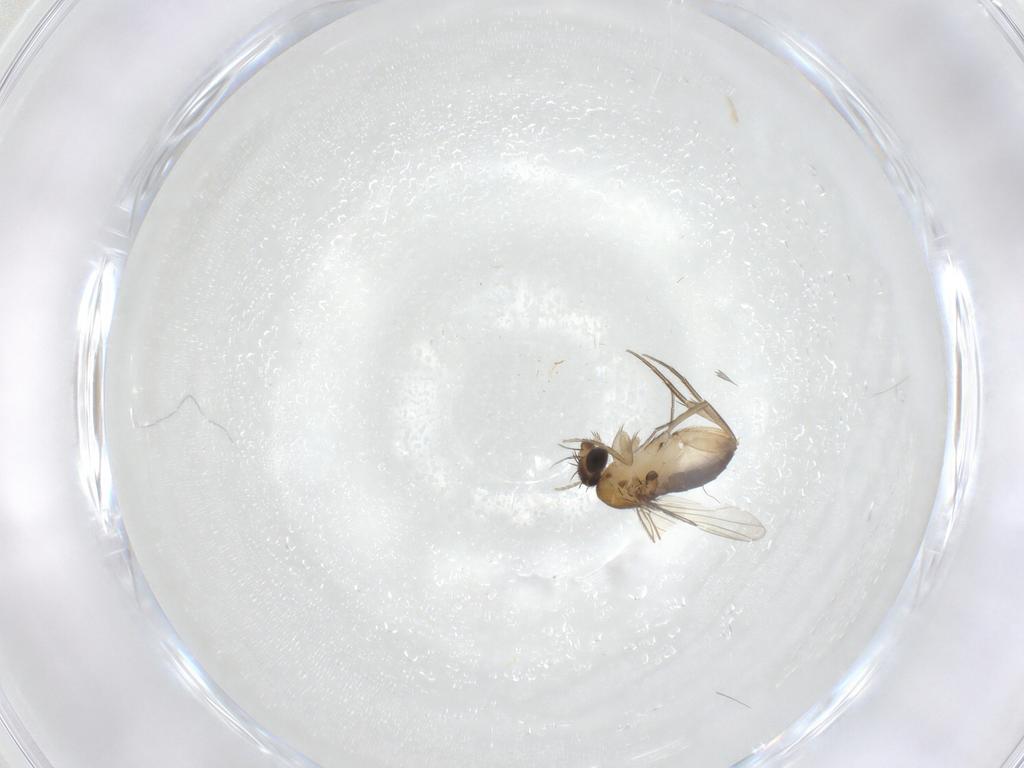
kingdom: Animalia
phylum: Arthropoda
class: Insecta
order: Diptera
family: Phoridae
